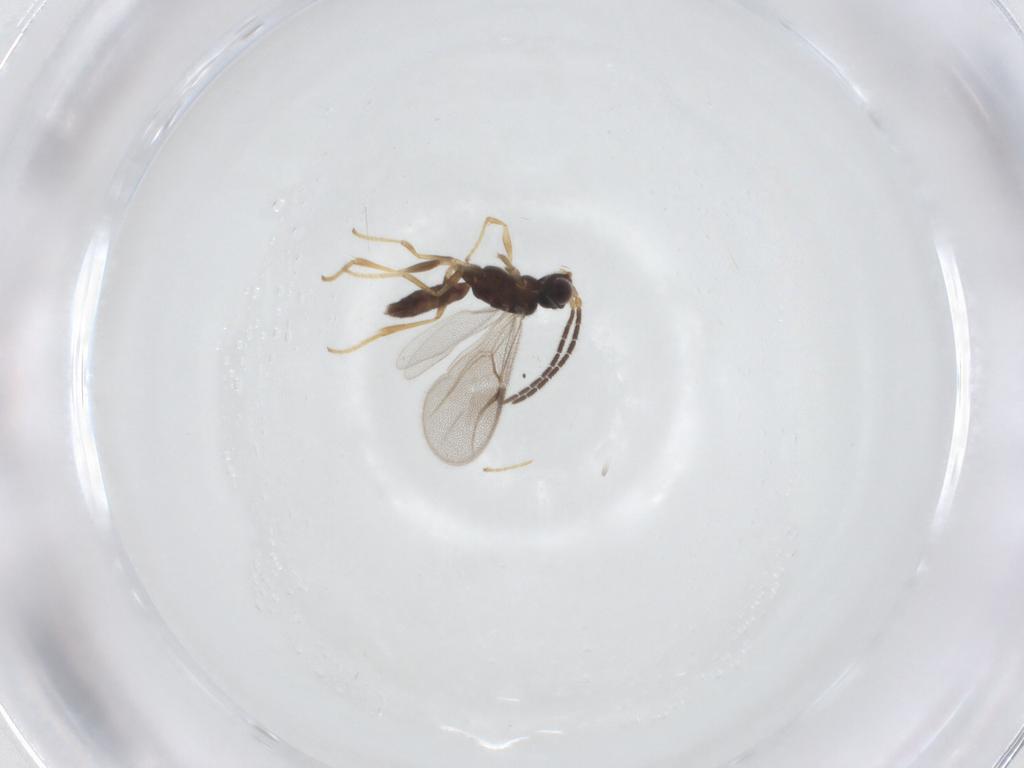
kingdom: Animalia
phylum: Arthropoda
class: Insecta
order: Hymenoptera
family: Dryinidae
